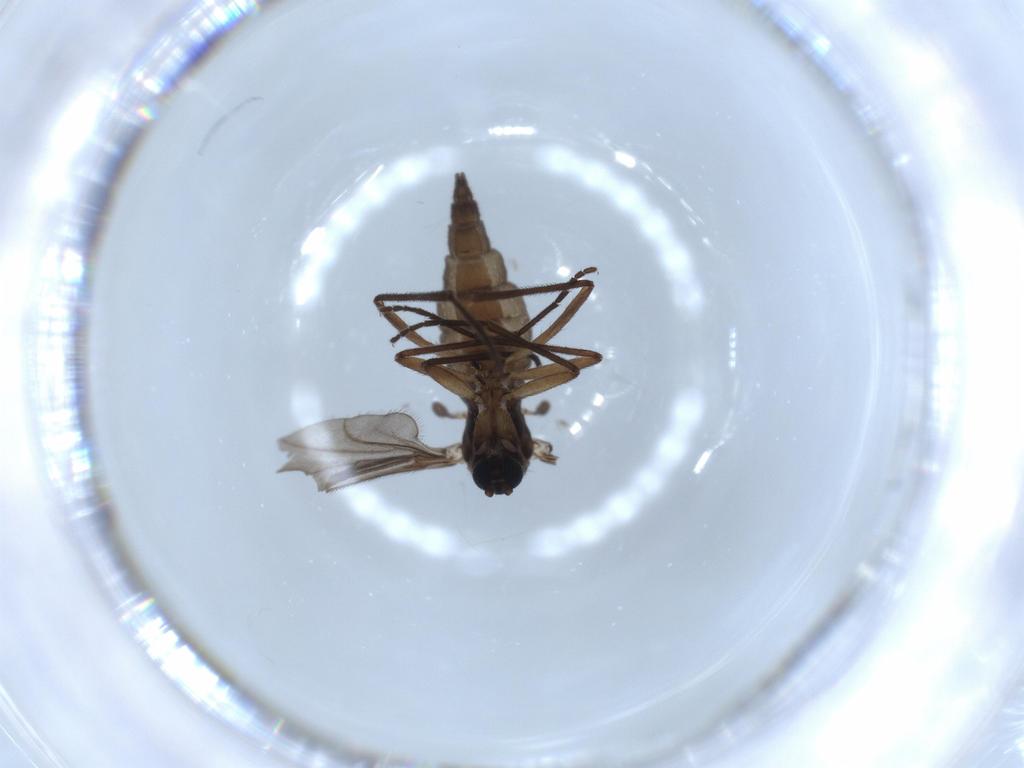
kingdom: Animalia
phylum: Arthropoda
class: Insecta
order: Diptera
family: Sciaridae
